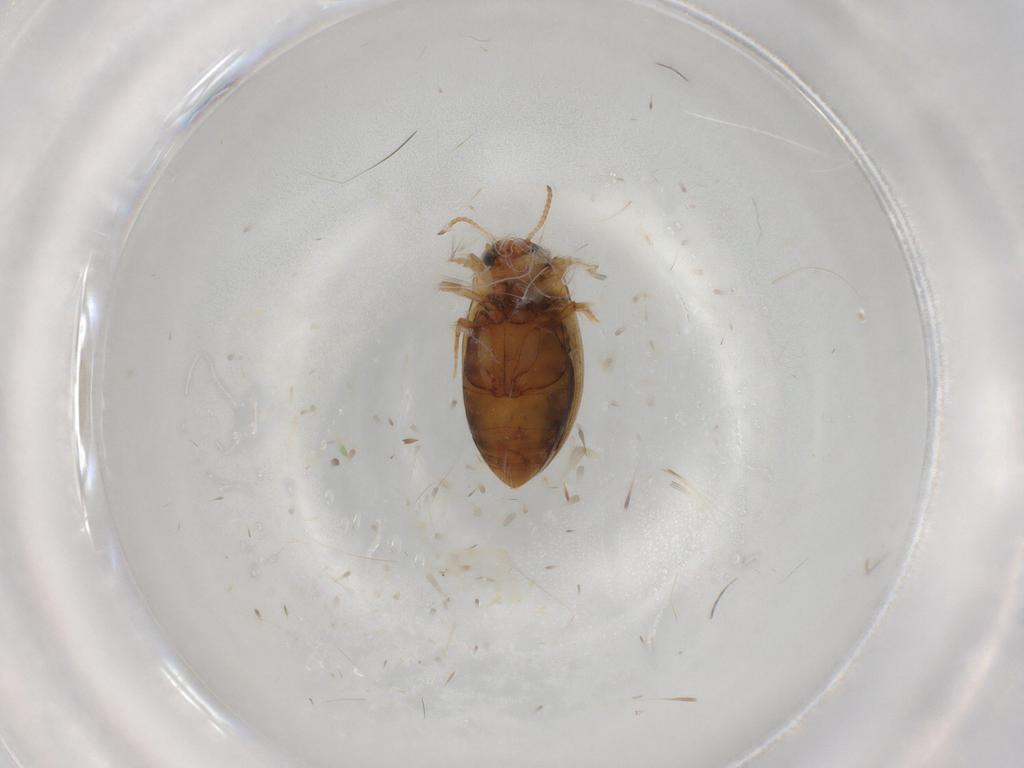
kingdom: Animalia
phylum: Arthropoda
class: Insecta
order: Coleoptera
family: Dytiscidae
